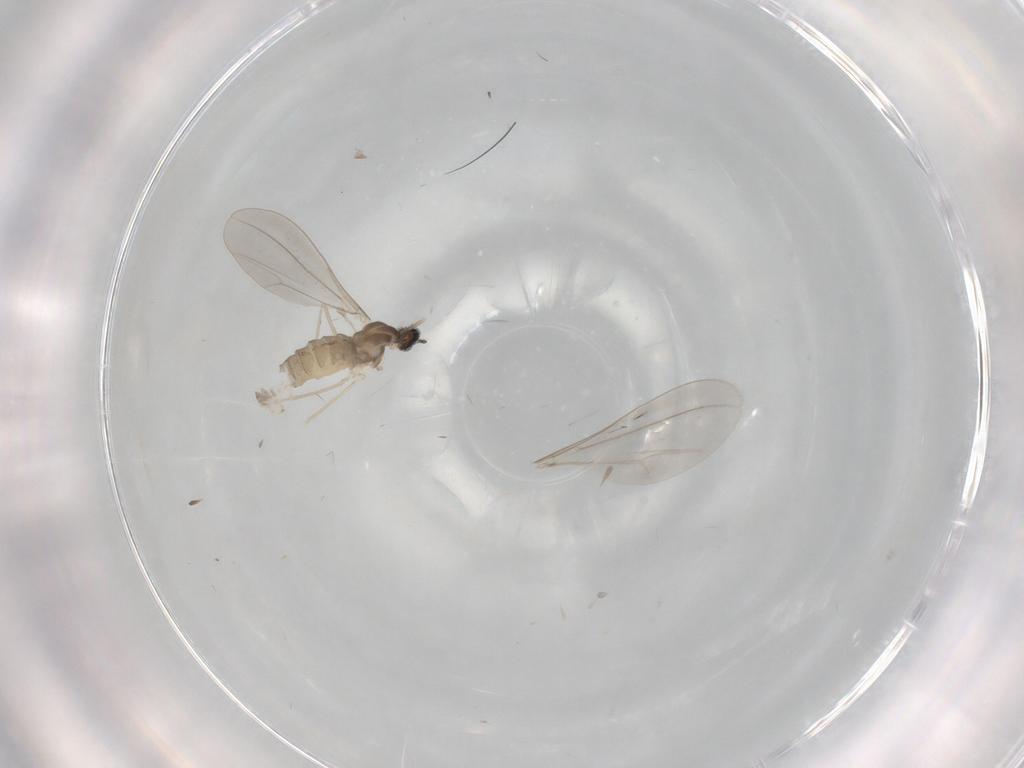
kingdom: Animalia
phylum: Arthropoda
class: Insecta
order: Diptera
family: Cecidomyiidae
